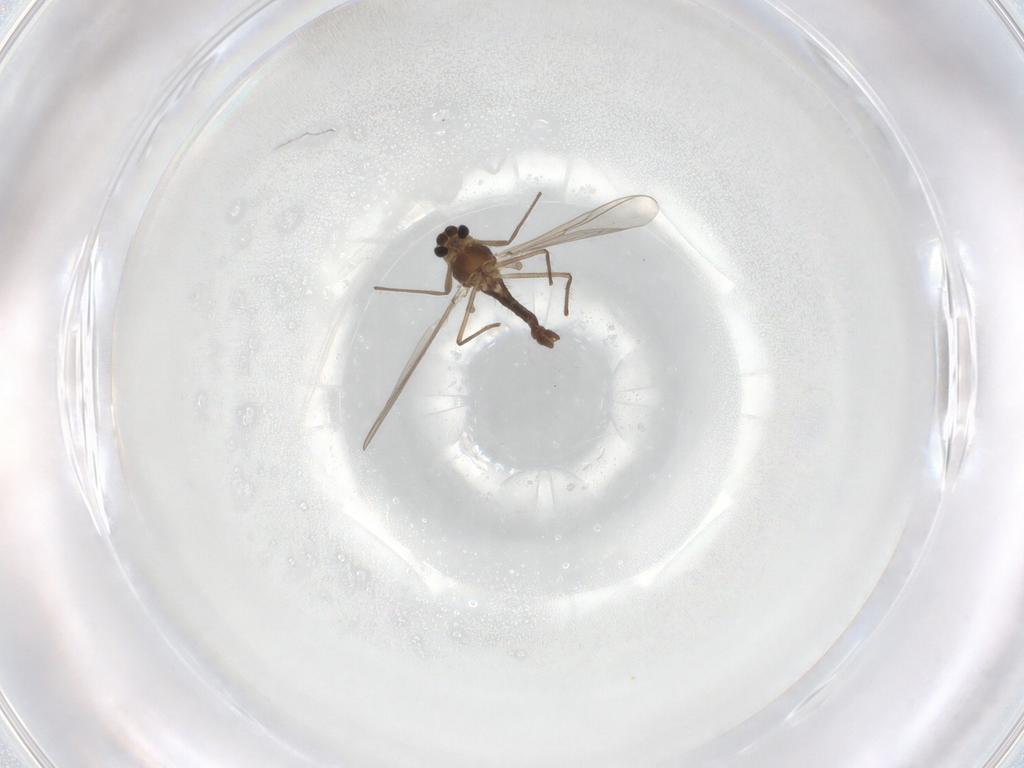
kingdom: Animalia
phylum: Arthropoda
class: Insecta
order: Diptera
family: Chironomidae
